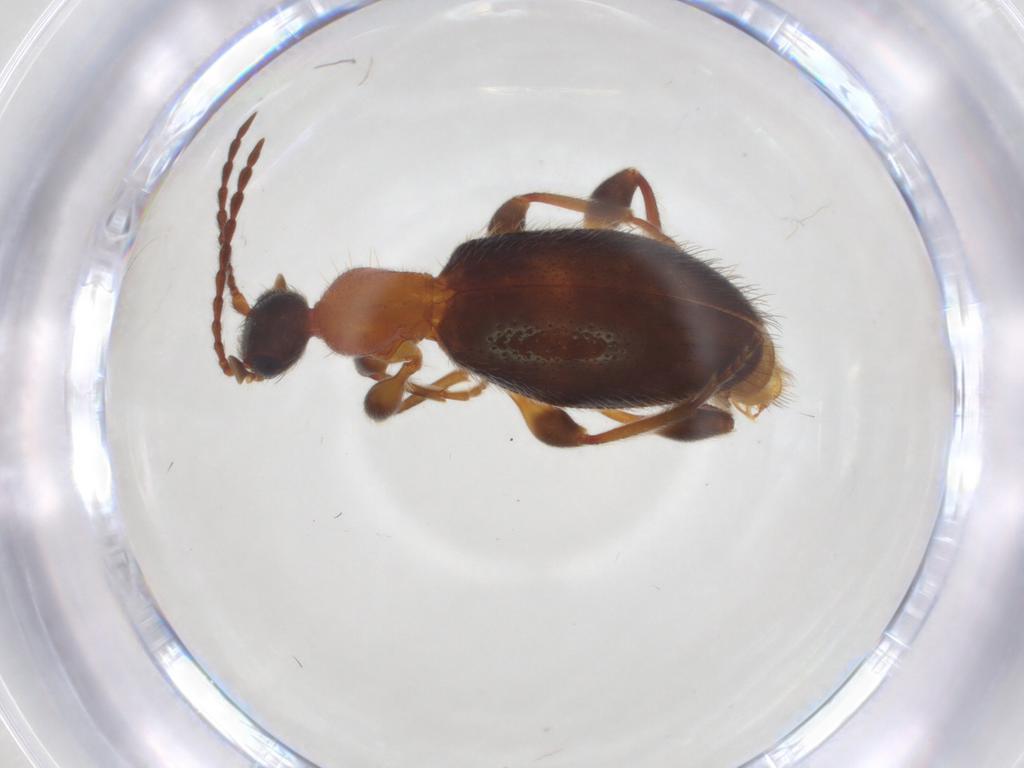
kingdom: Animalia
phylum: Arthropoda
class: Insecta
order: Coleoptera
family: Anthicidae
